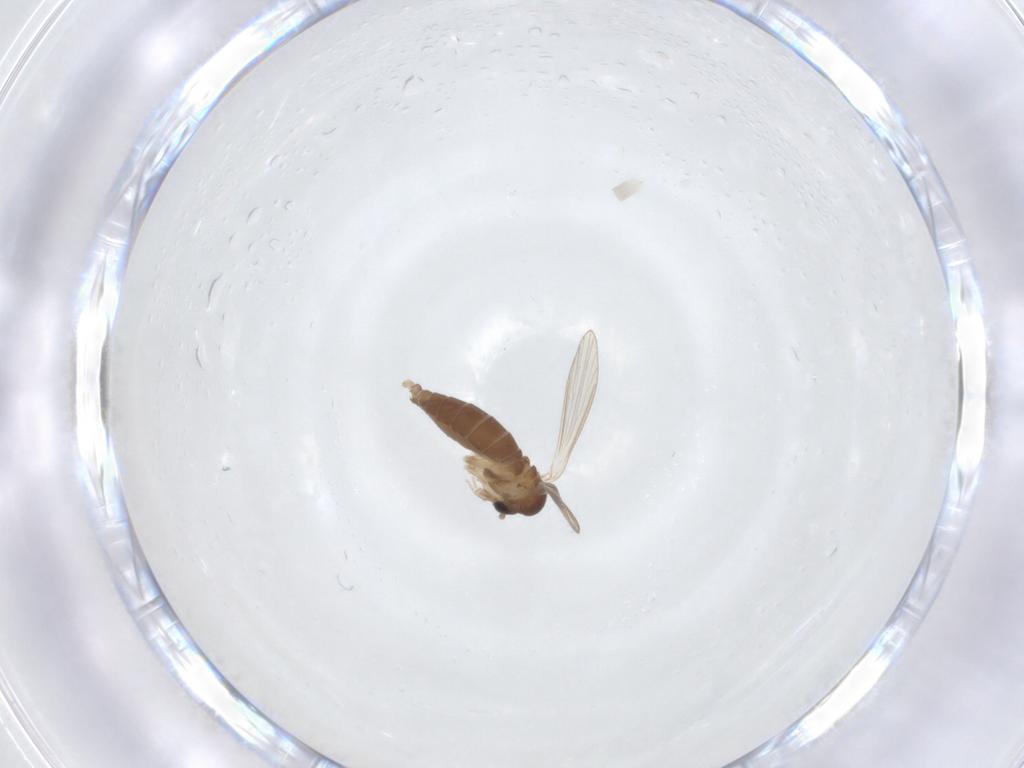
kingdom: Animalia
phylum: Arthropoda
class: Insecta
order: Diptera
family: Psychodidae
